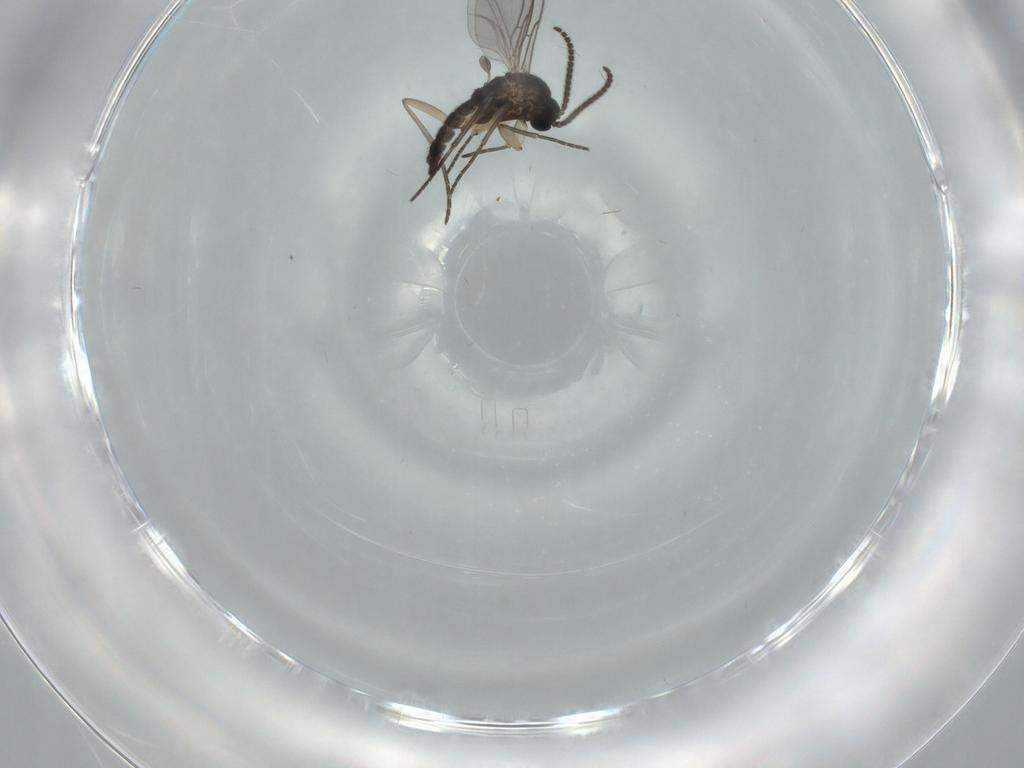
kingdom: Animalia
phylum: Arthropoda
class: Insecta
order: Diptera
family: Sciaridae
